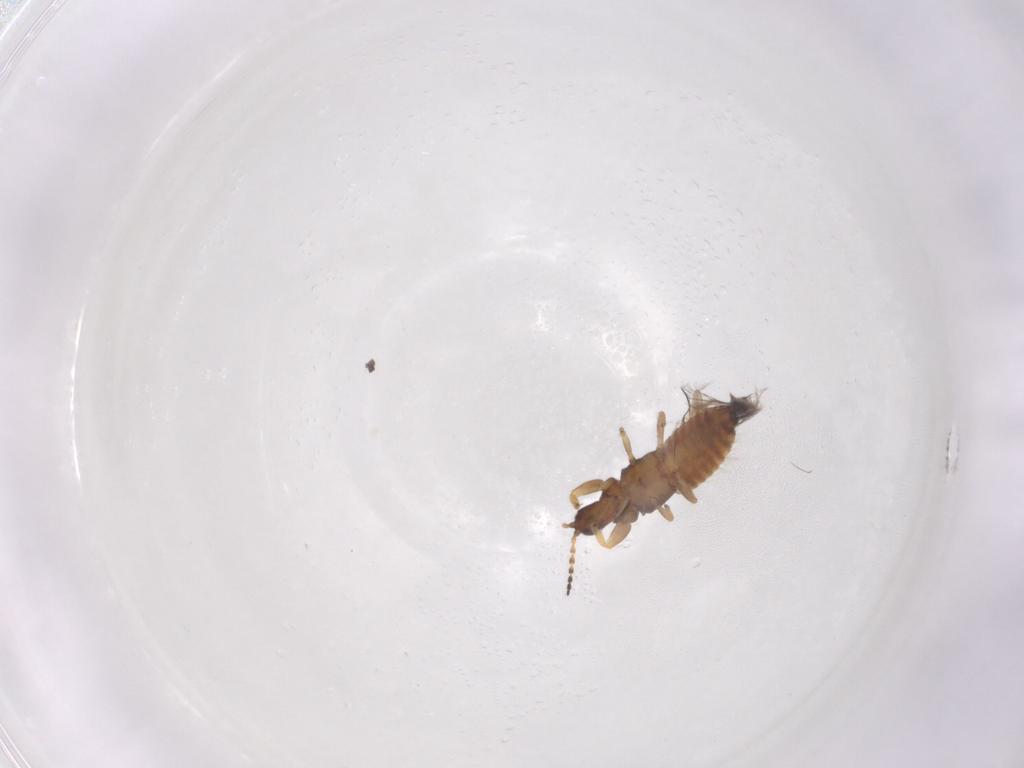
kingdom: Animalia
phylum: Arthropoda
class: Insecta
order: Thysanoptera
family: Phlaeothripidae
